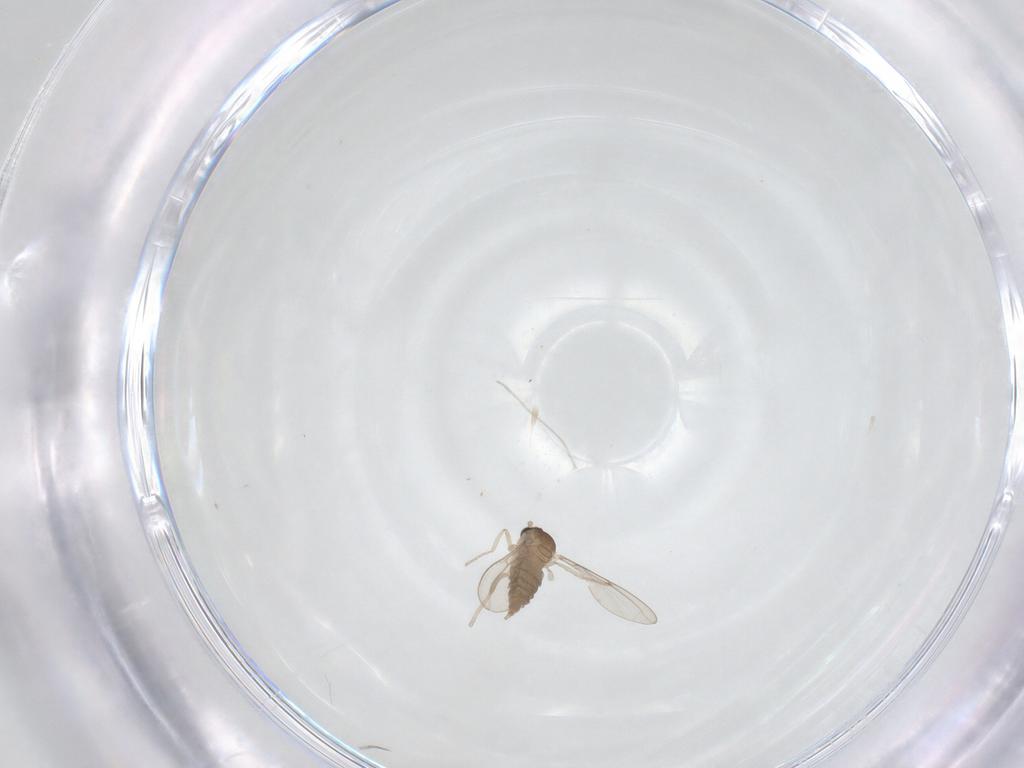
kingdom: Animalia
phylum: Arthropoda
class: Insecta
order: Diptera
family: Cecidomyiidae
